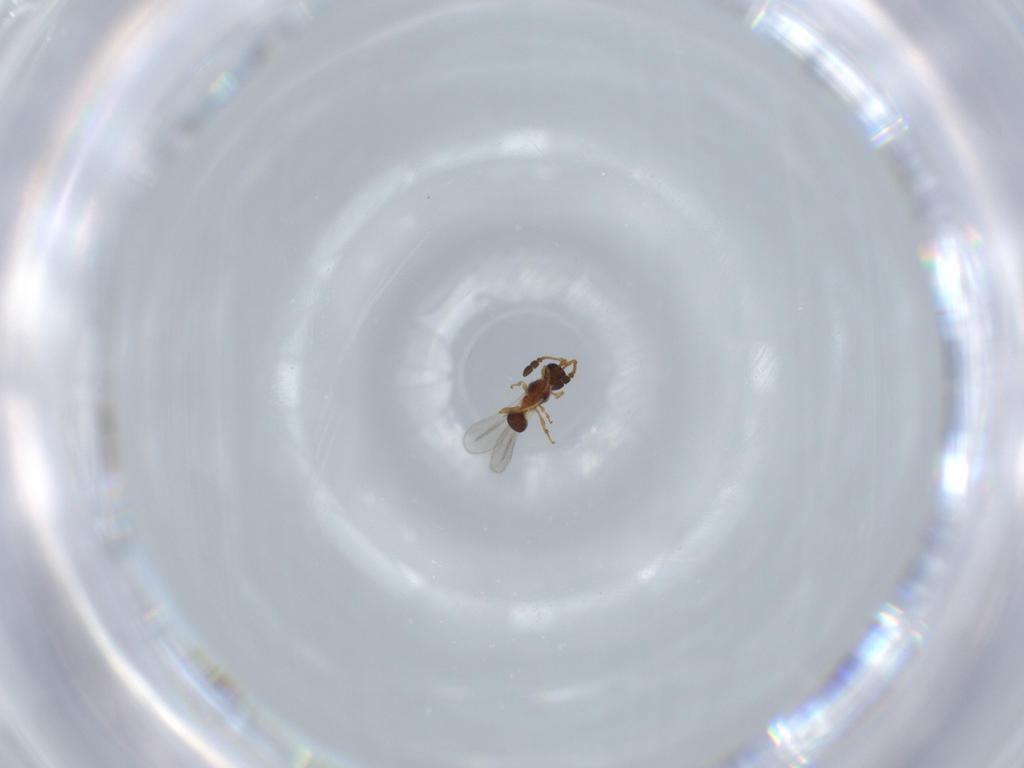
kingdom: Animalia
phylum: Arthropoda
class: Insecta
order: Hymenoptera
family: Diapriidae
